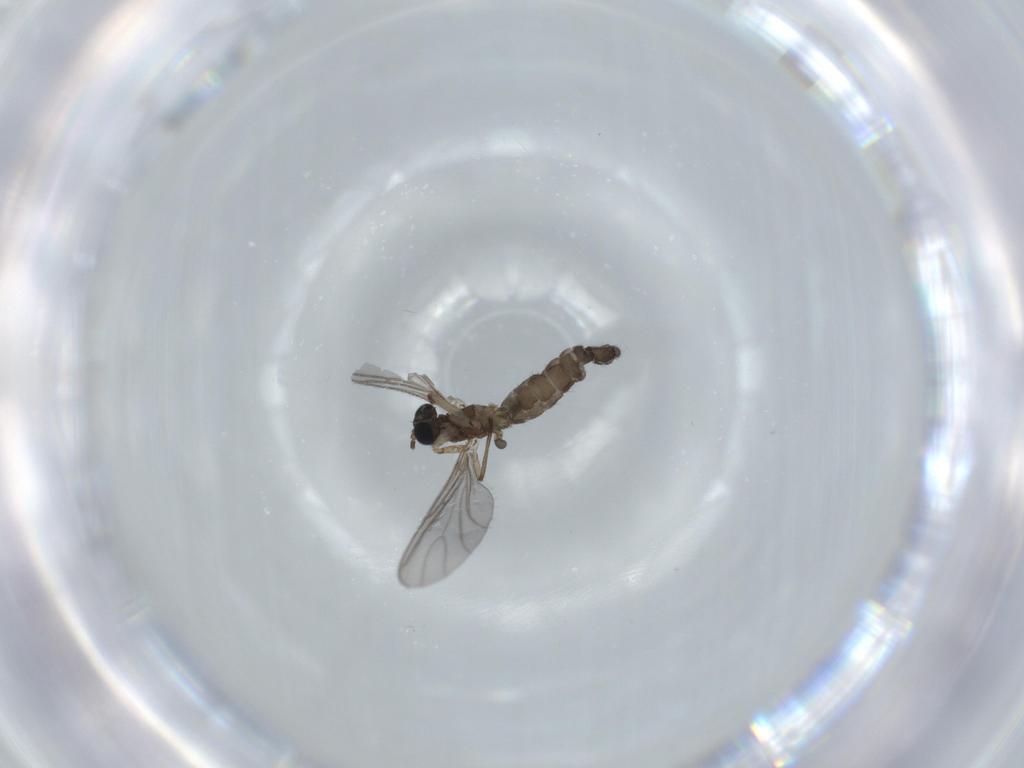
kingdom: Animalia
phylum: Arthropoda
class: Insecta
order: Diptera
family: Sciaridae
